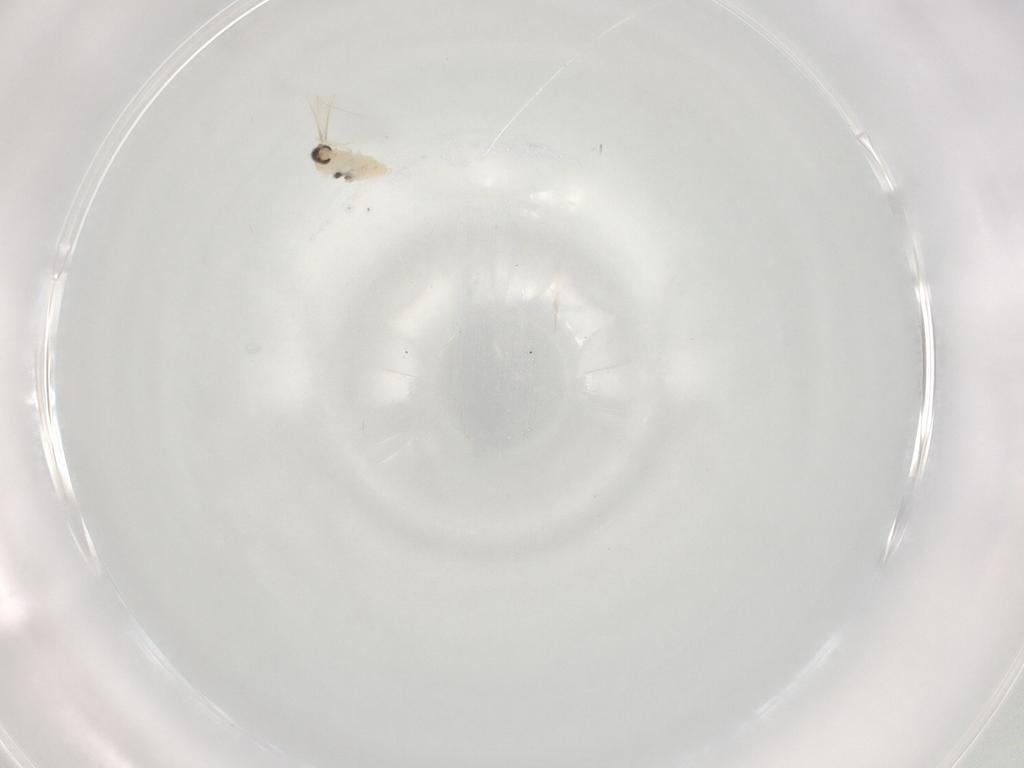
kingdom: Animalia
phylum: Arthropoda
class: Insecta
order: Diptera
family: Cecidomyiidae
